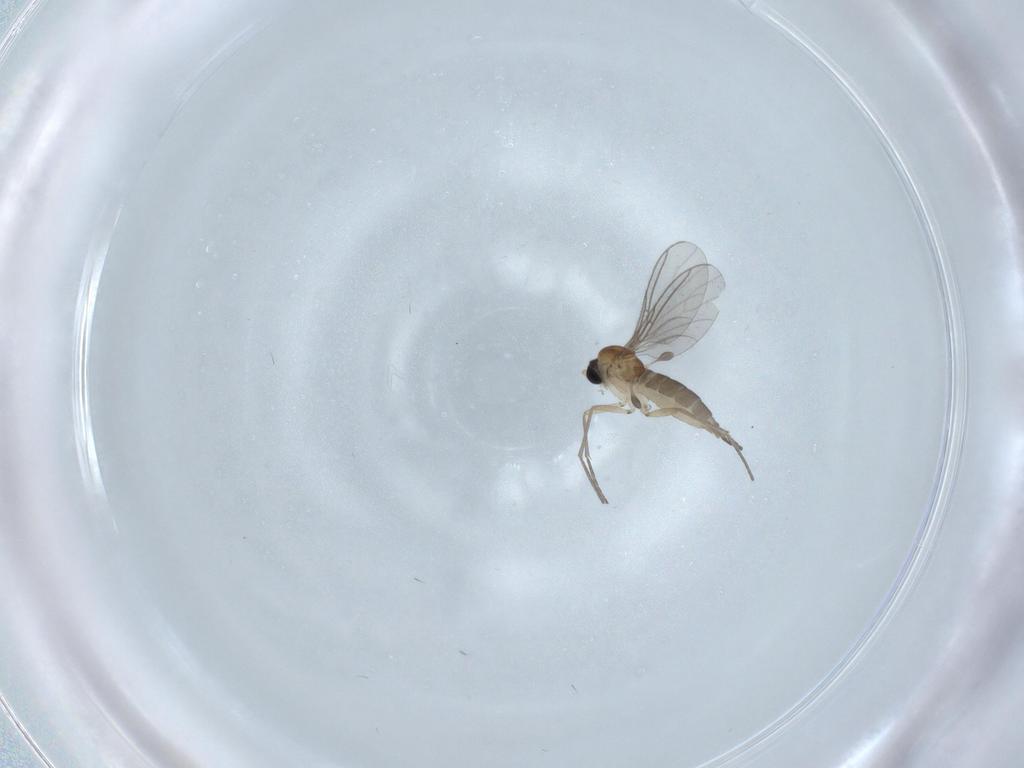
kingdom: Animalia
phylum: Arthropoda
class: Insecta
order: Diptera
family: Sciaridae
